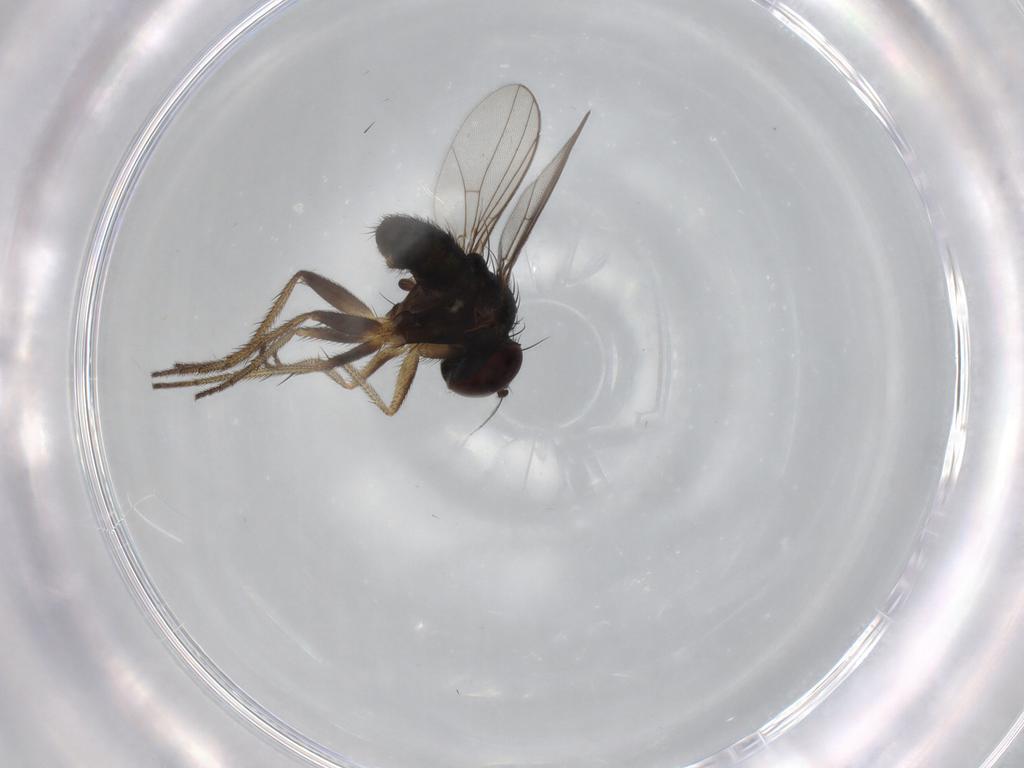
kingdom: Animalia
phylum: Arthropoda
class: Insecta
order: Diptera
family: Dolichopodidae
